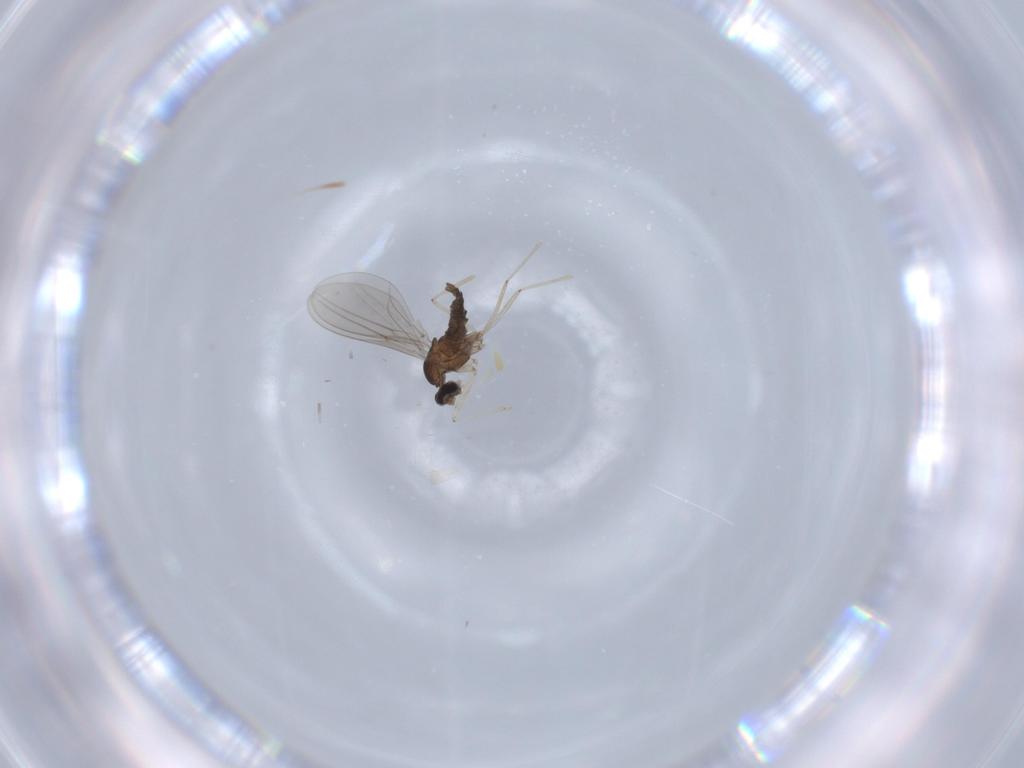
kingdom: Animalia
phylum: Arthropoda
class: Insecta
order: Diptera
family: Cecidomyiidae
